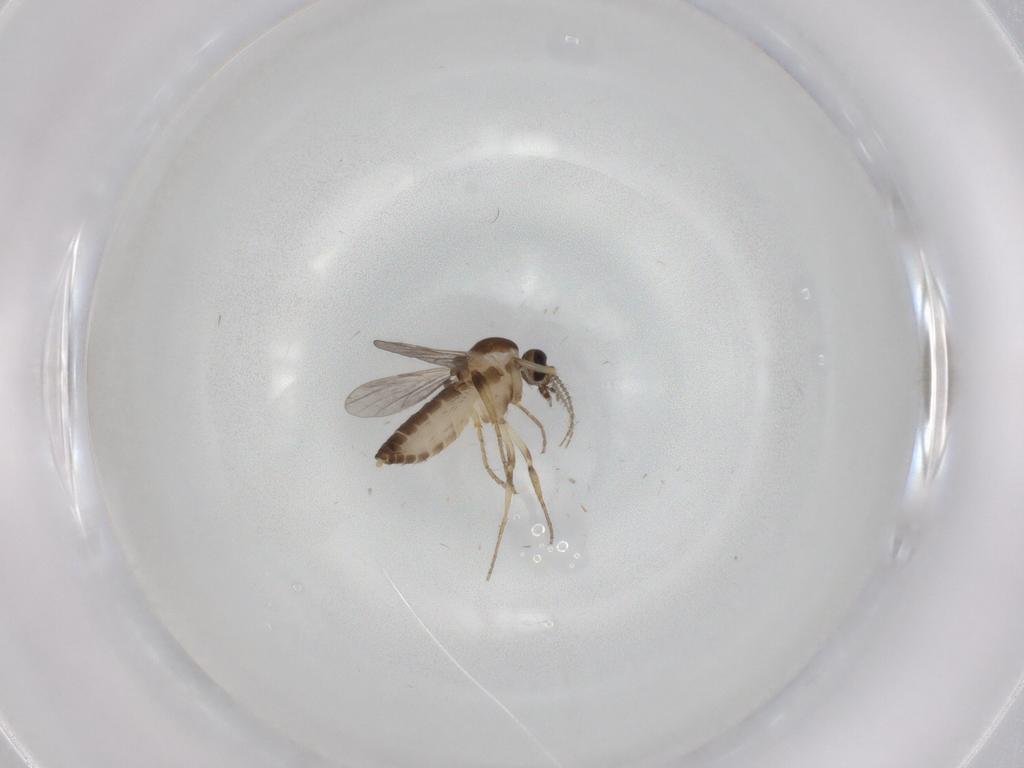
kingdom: Animalia
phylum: Arthropoda
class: Insecta
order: Diptera
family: Ceratopogonidae
